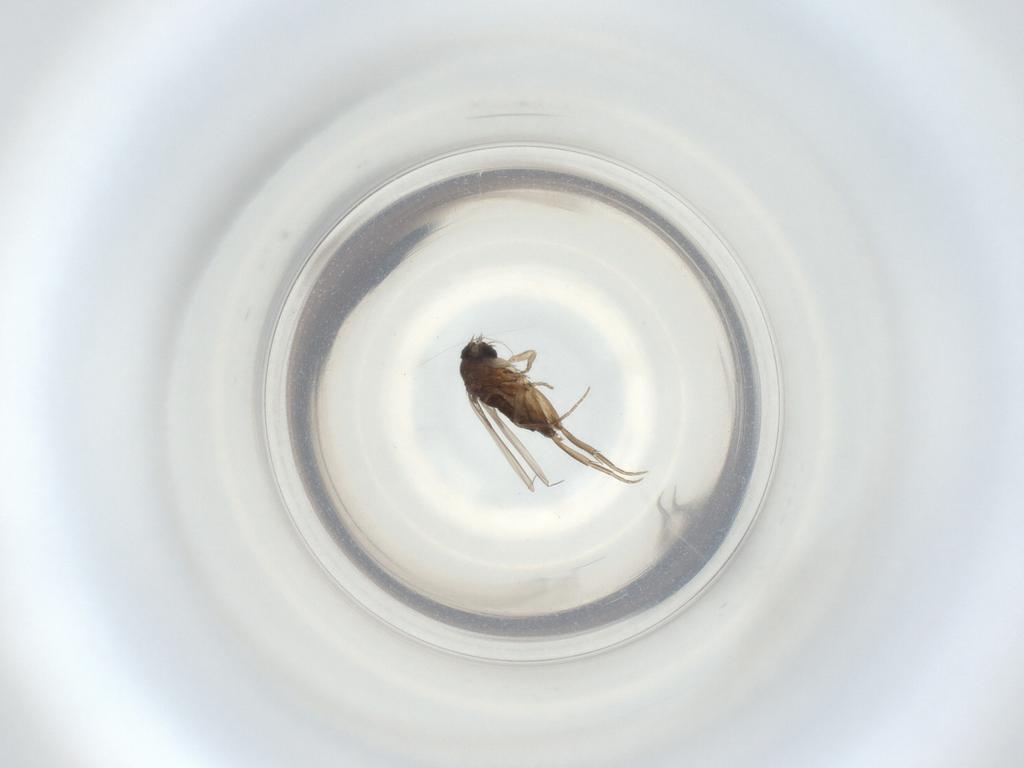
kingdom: Animalia
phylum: Arthropoda
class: Insecta
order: Diptera
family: Phoridae
